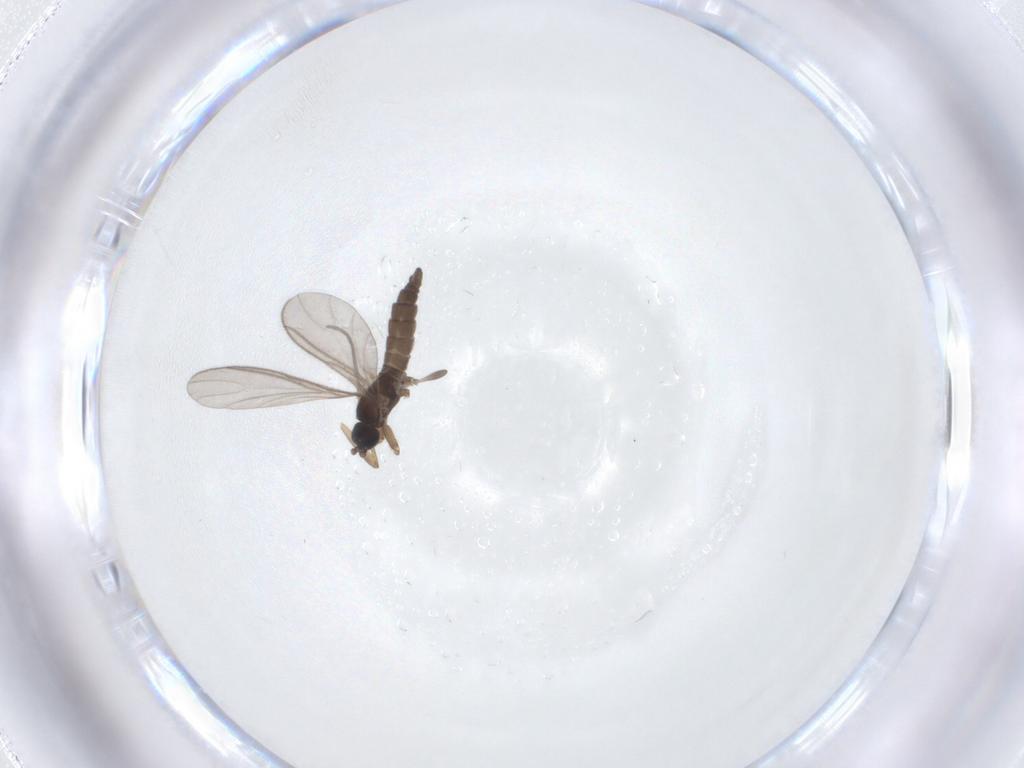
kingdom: Animalia
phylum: Arthropoda
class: Insecta
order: Diptera
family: Sciaridae
